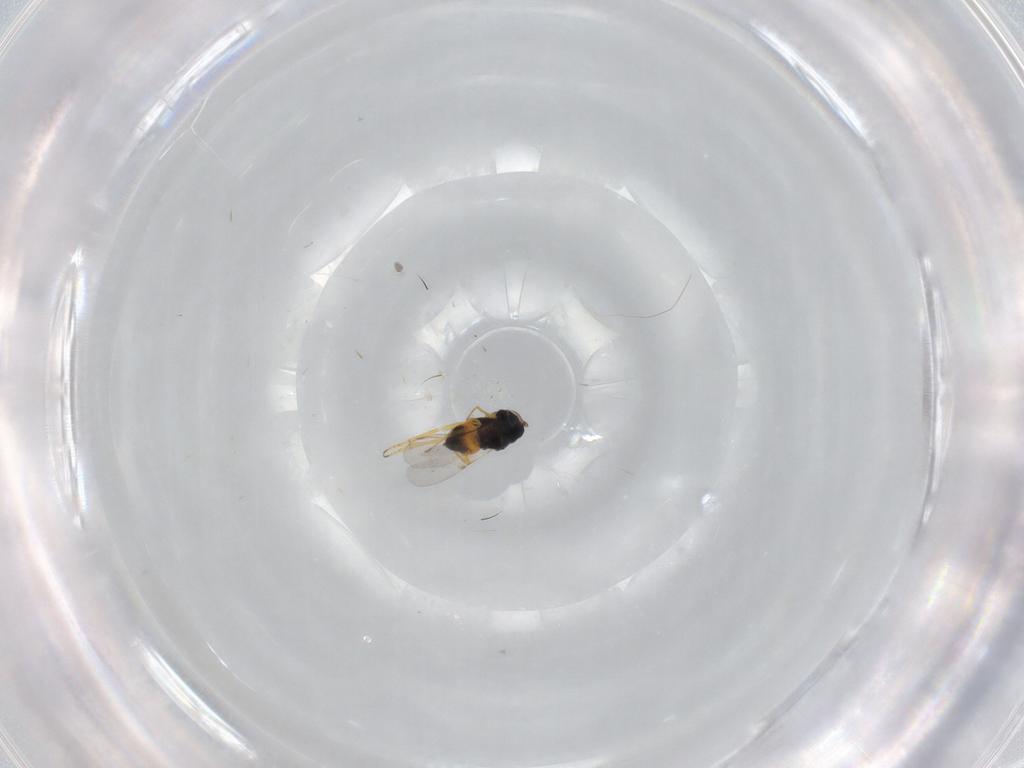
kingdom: Animalia
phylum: Arthropoda
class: Insecta
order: Hymenoptera
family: Encyrtidae
